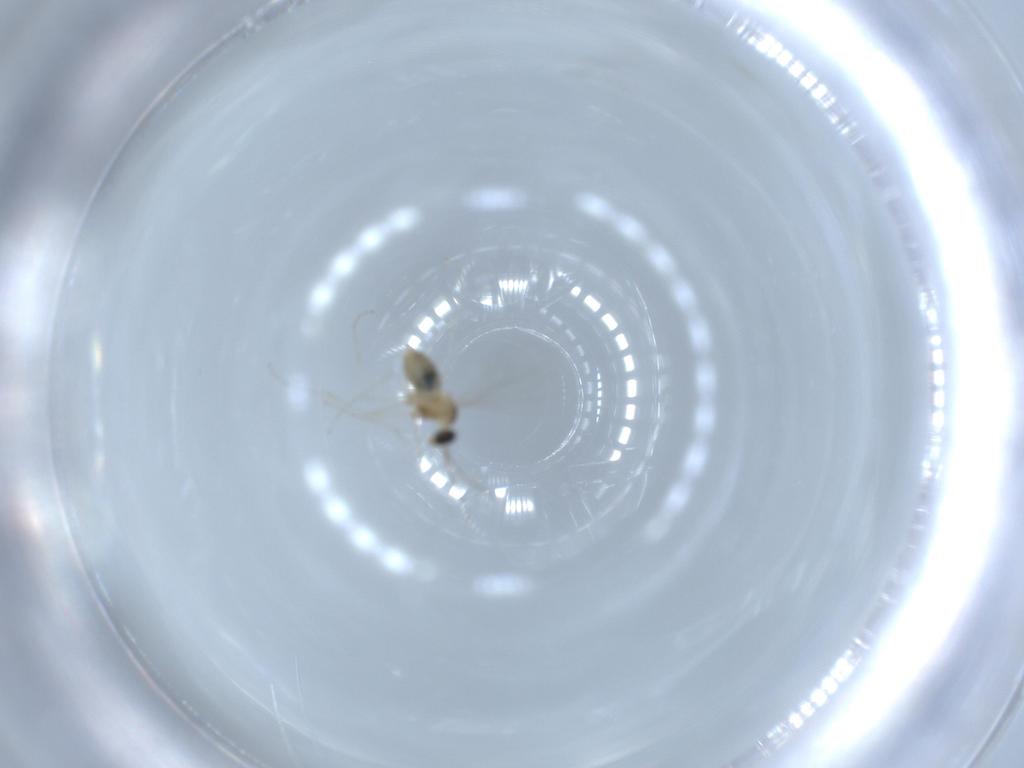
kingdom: Animalia
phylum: Arthropoda
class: Insecta
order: Diptera
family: Cecidomyiidae
